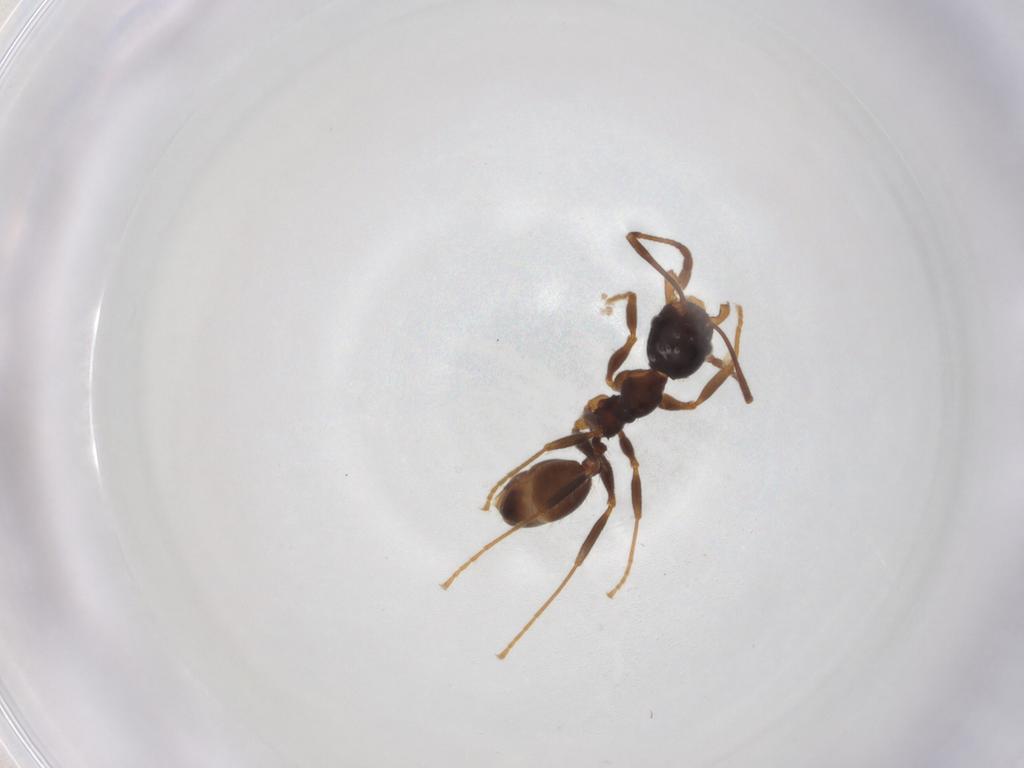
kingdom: Animalia
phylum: Arthropoda
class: Insecta
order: Hymenoptera
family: Formicidae
